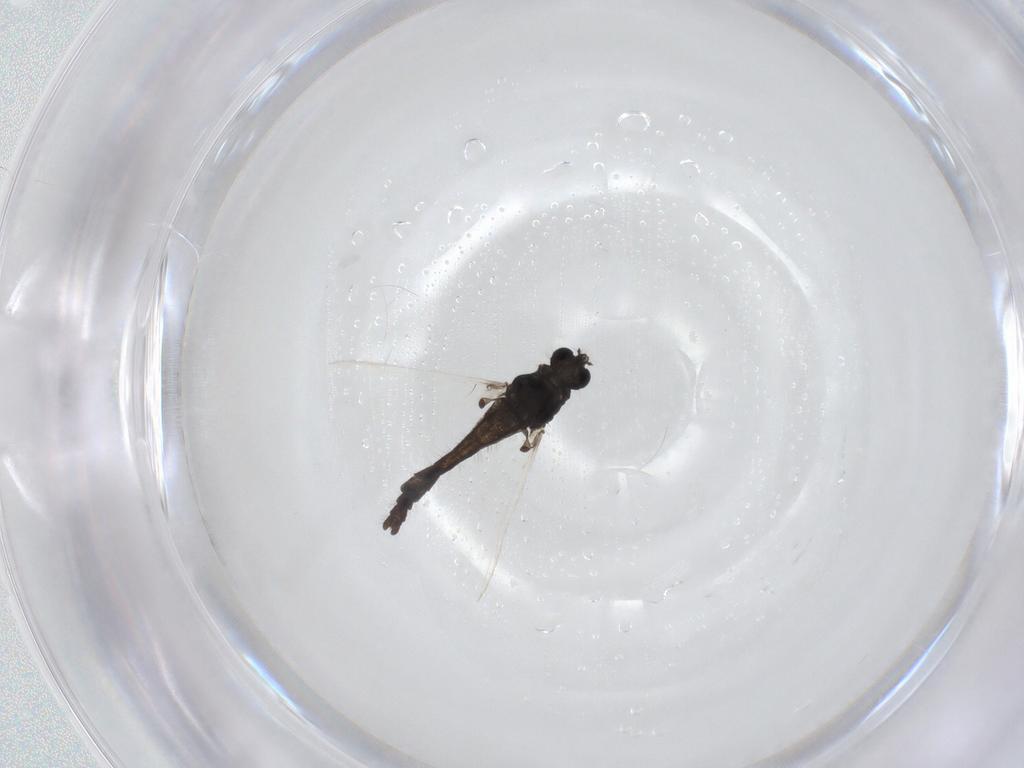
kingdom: Animalia
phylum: Arthropoda
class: Insecta
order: Diptera
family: Chironomidae
